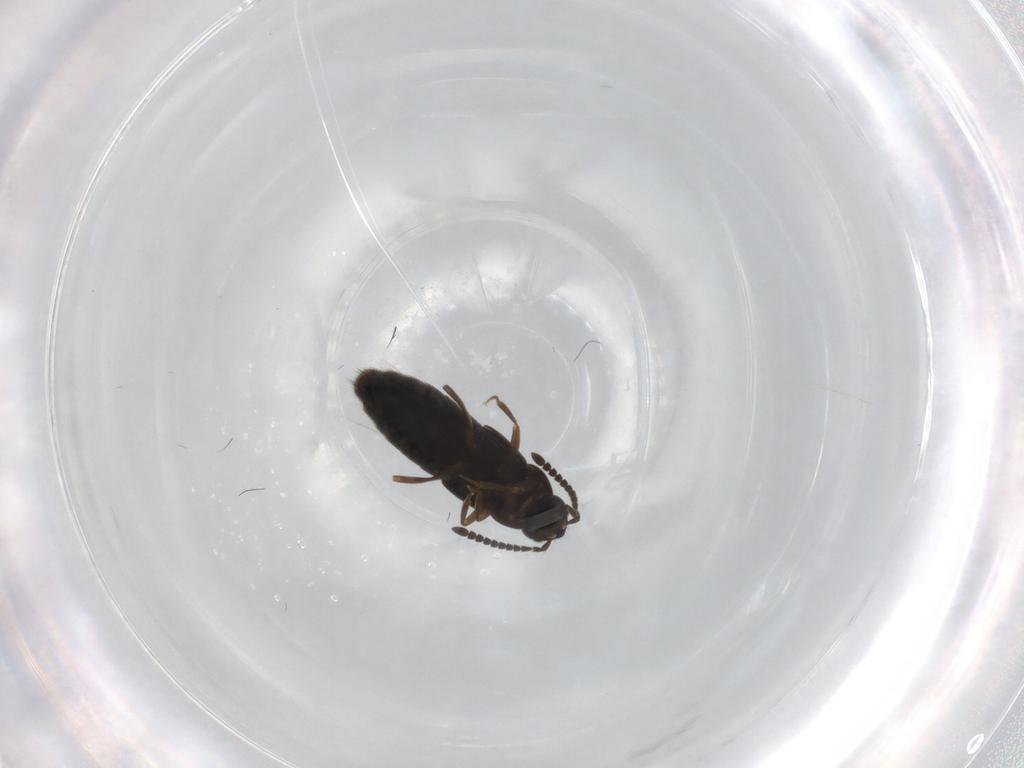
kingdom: Animalia
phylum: Arthropoda
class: Insecta
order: Coleoptera
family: Staphylinidae
